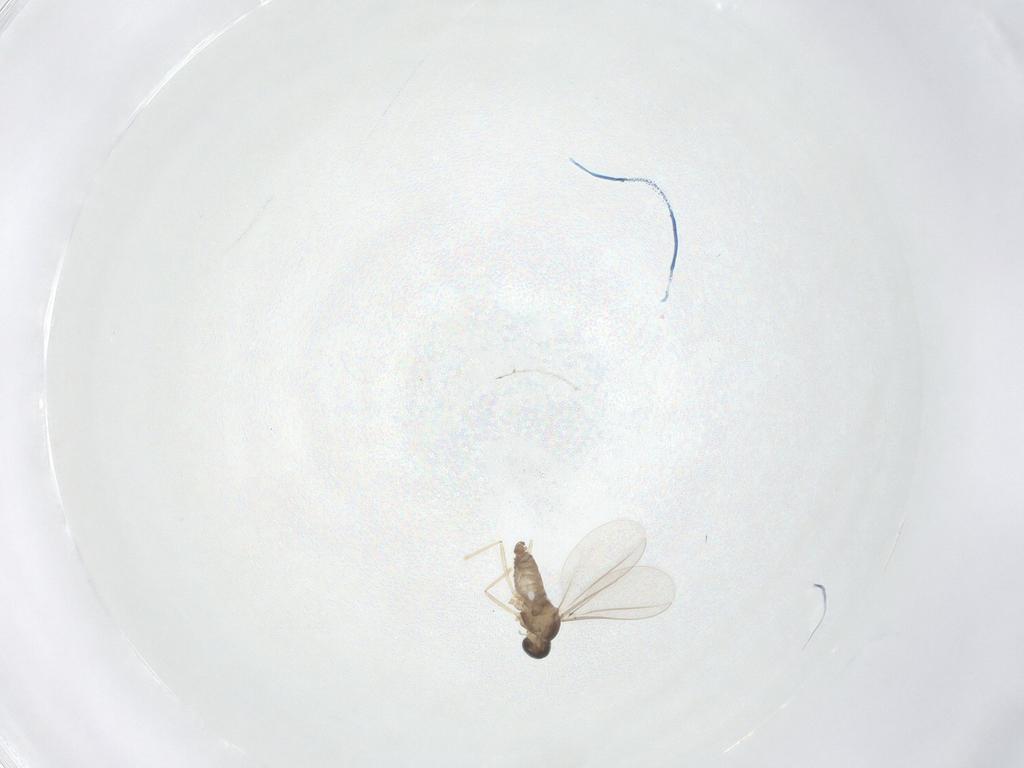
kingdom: Animalia
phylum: Arthropoda
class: Insecta
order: Diptera
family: Cecidomyiidae
